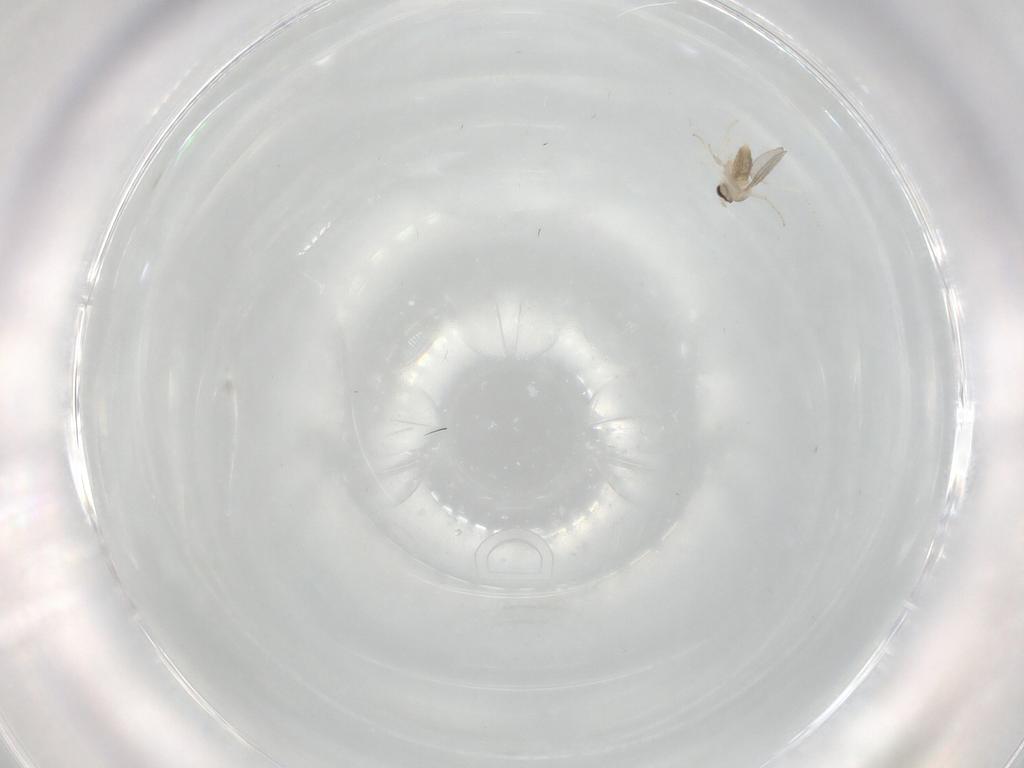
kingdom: Animalia
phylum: Arthropoda
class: Insecta
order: Diptera
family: Cecidomyiidae
